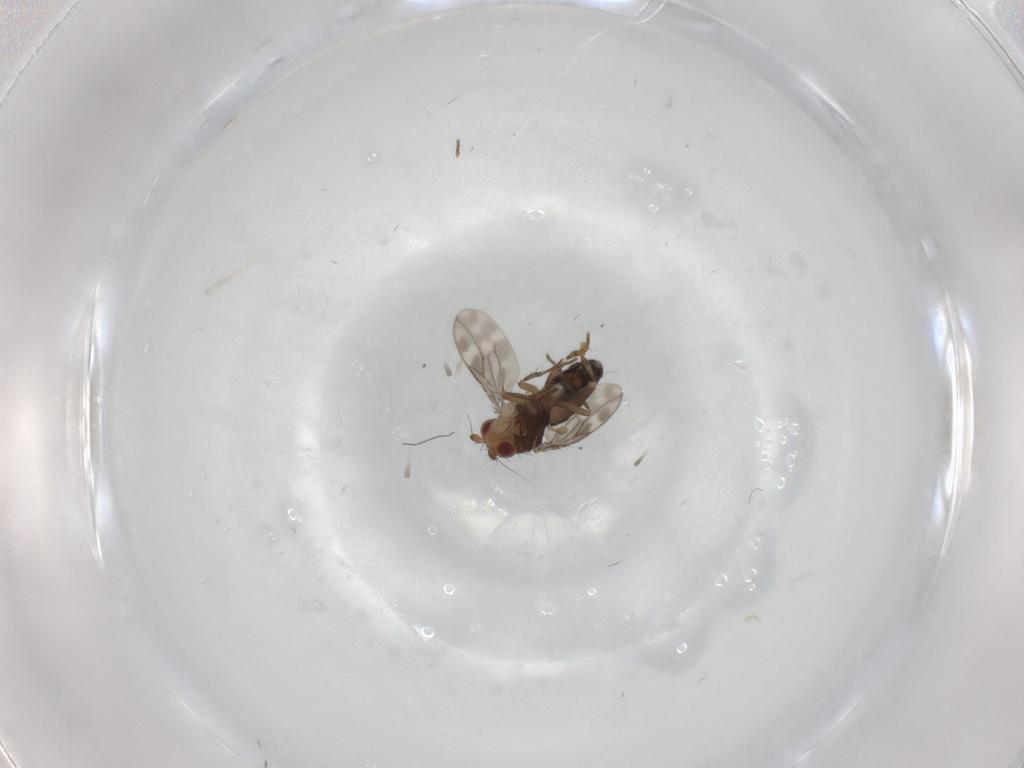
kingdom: Animalia
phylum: Arthropoda
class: Insecta
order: Diptera
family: Sphaeroceridae
